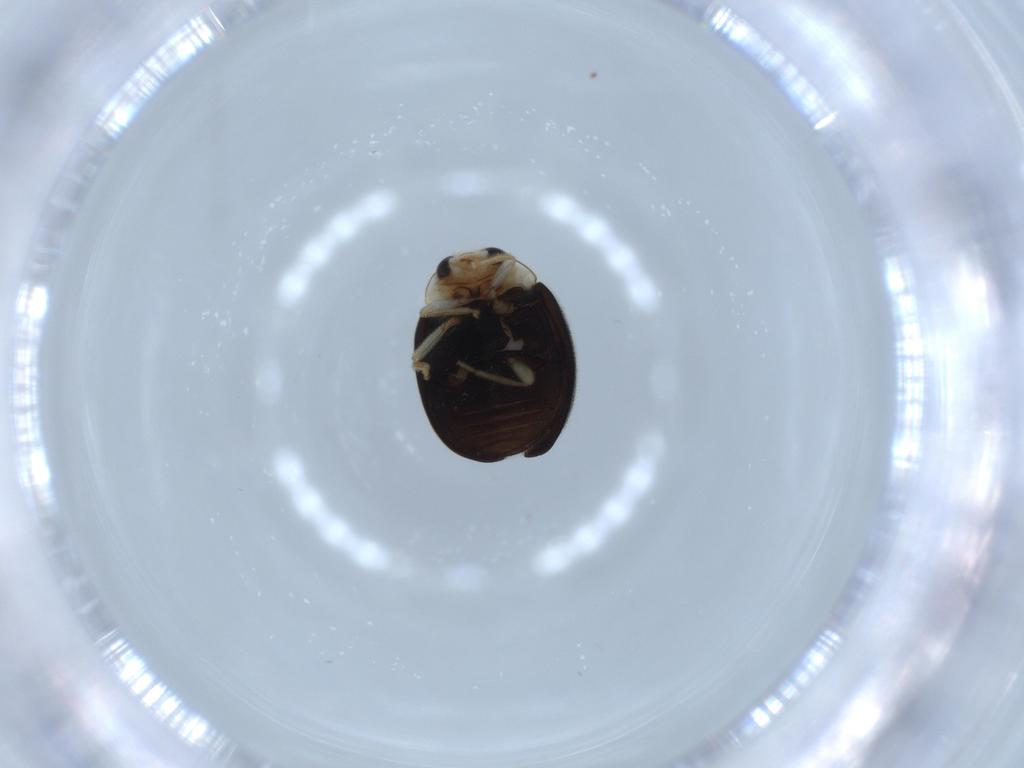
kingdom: Animalia
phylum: Arthropoda
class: Insecta
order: Coleoptera
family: Coccinellidae
